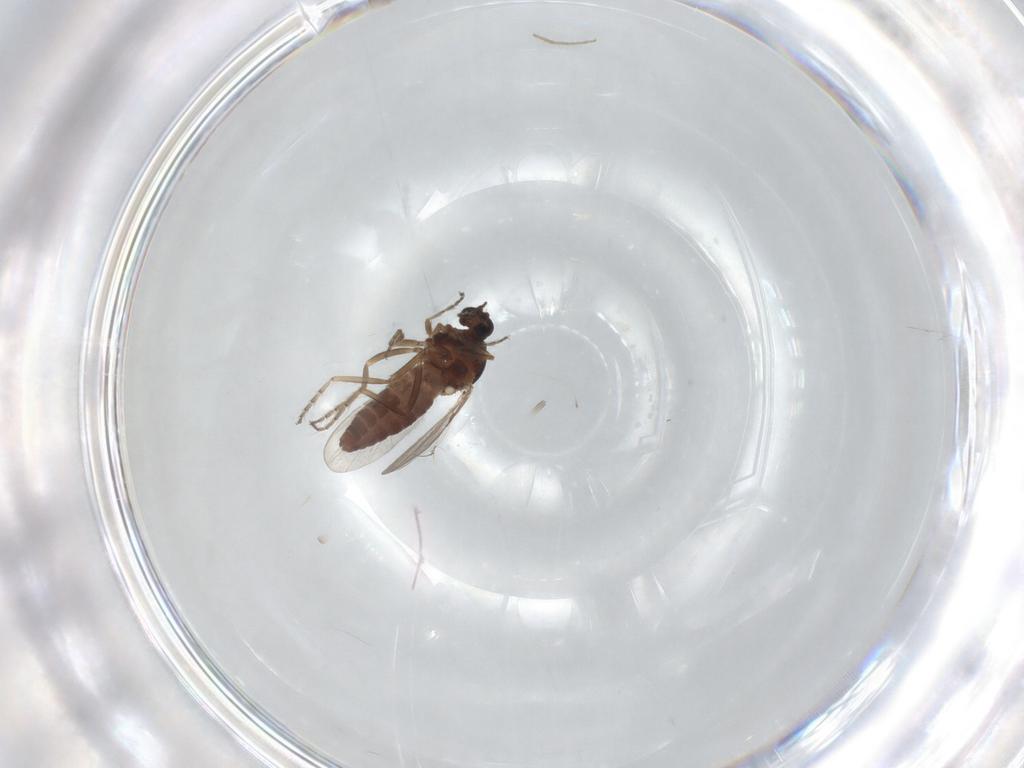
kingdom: Animalia
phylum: Arthropoda
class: Insecta
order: Diptera
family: Ceratopogonidae
